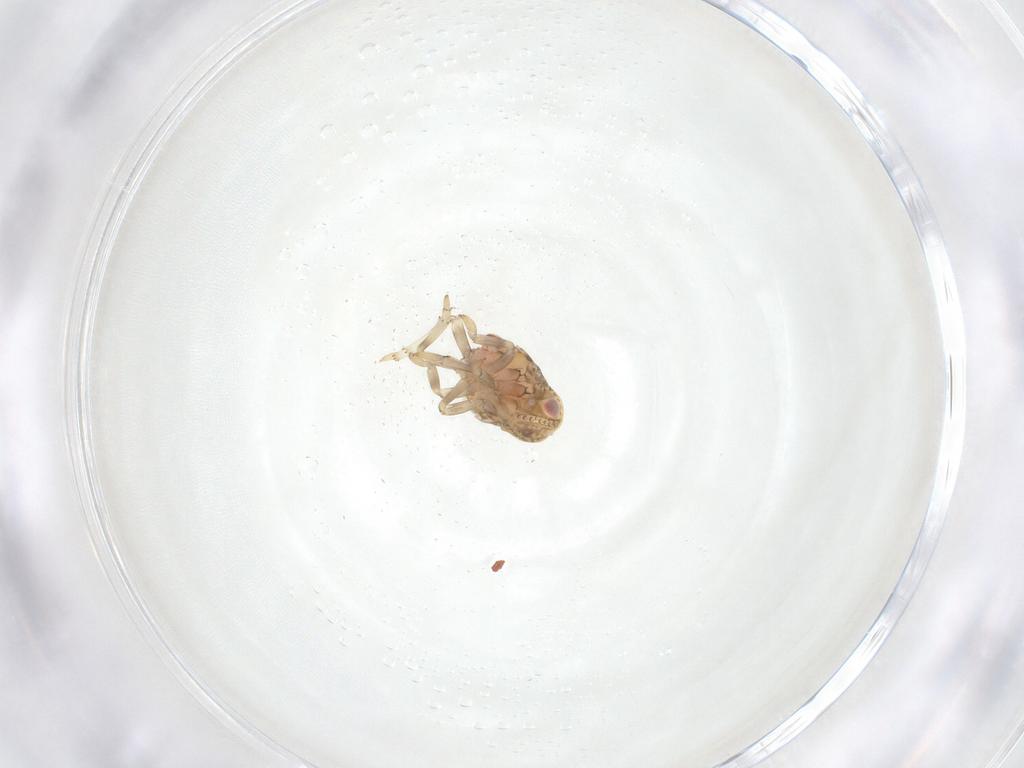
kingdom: Animalia
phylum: Arthropoda
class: Insecta
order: Hemiptera
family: Nogodinidae
